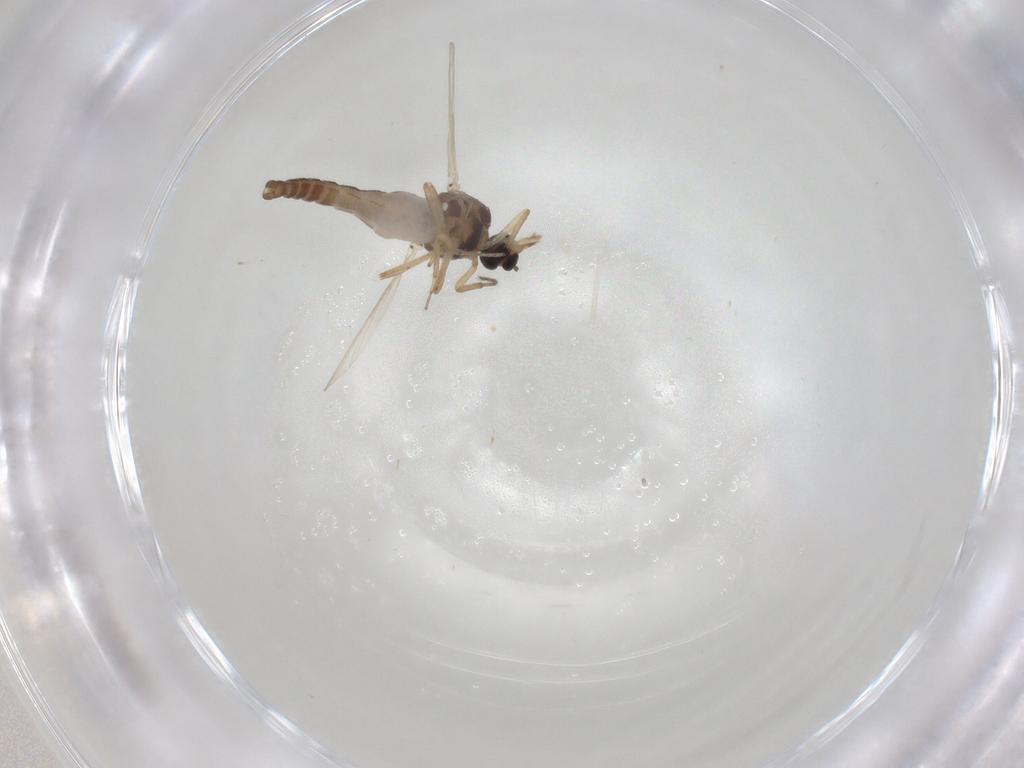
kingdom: Animalia
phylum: Arthropoda
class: Insecta
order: Diptera
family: Ceratopogonidae
